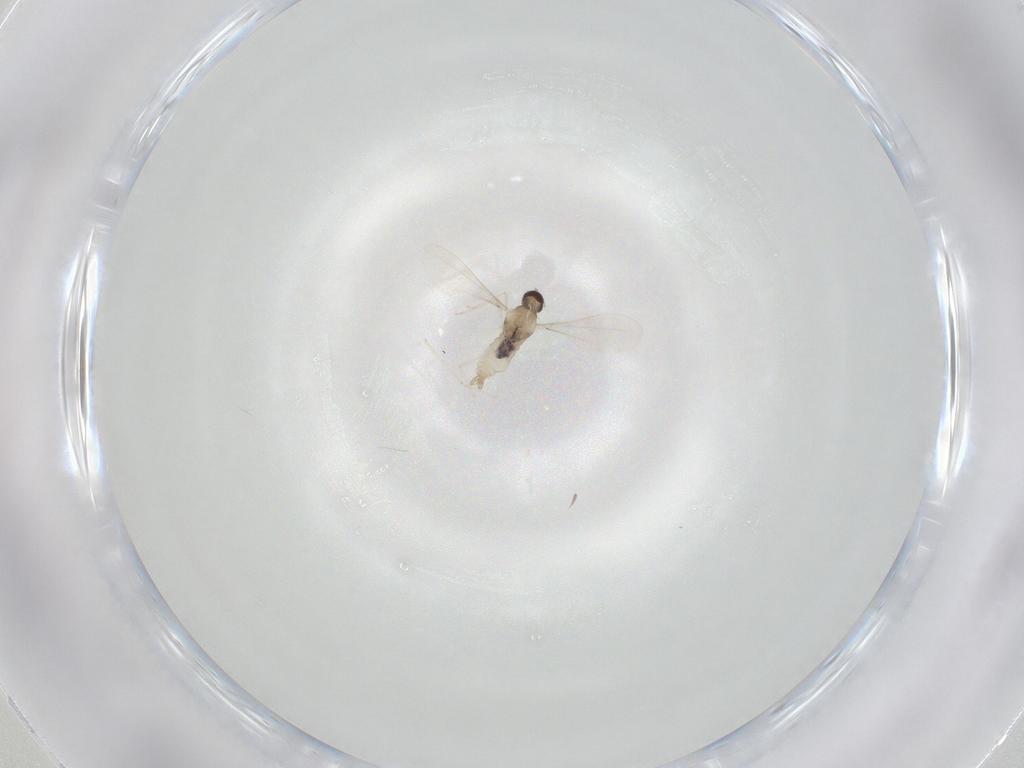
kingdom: Animalia
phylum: Arthropoda
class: Insecta
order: Diptera
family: Cecidomyiidae
